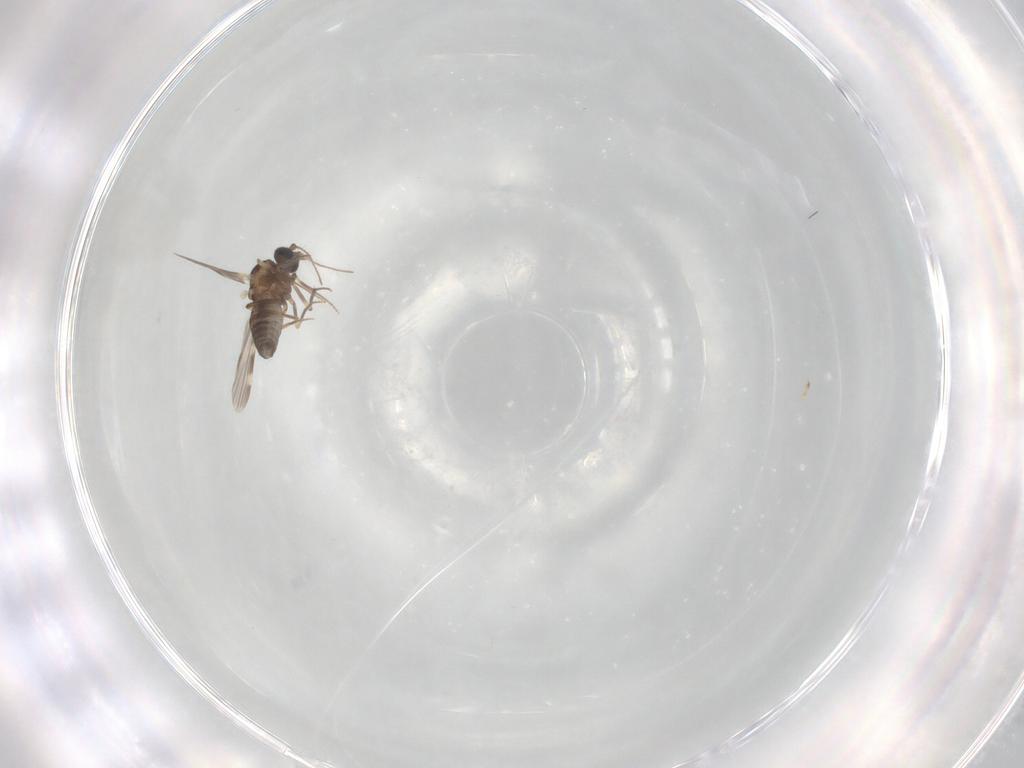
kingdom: Animalia
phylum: Arthropoda
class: Insecta
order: Diptera
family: Ceratopogonidae
